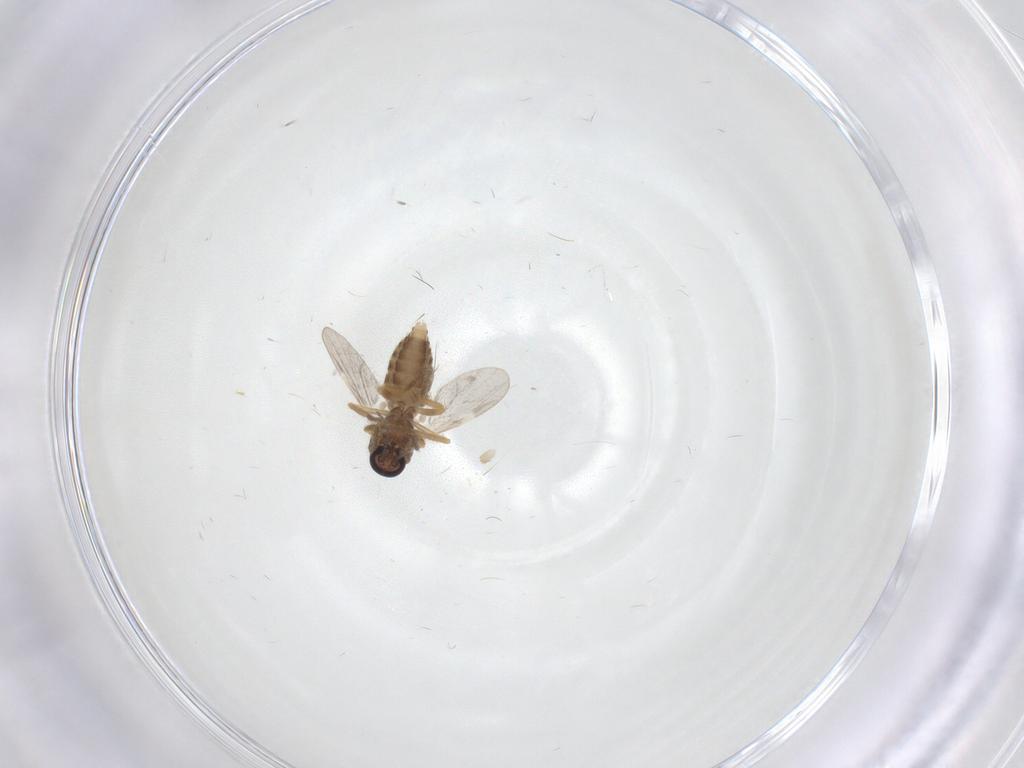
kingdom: Animalia
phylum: Arthropoda
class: Insecta
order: Diptera
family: Ceratopogonidae
